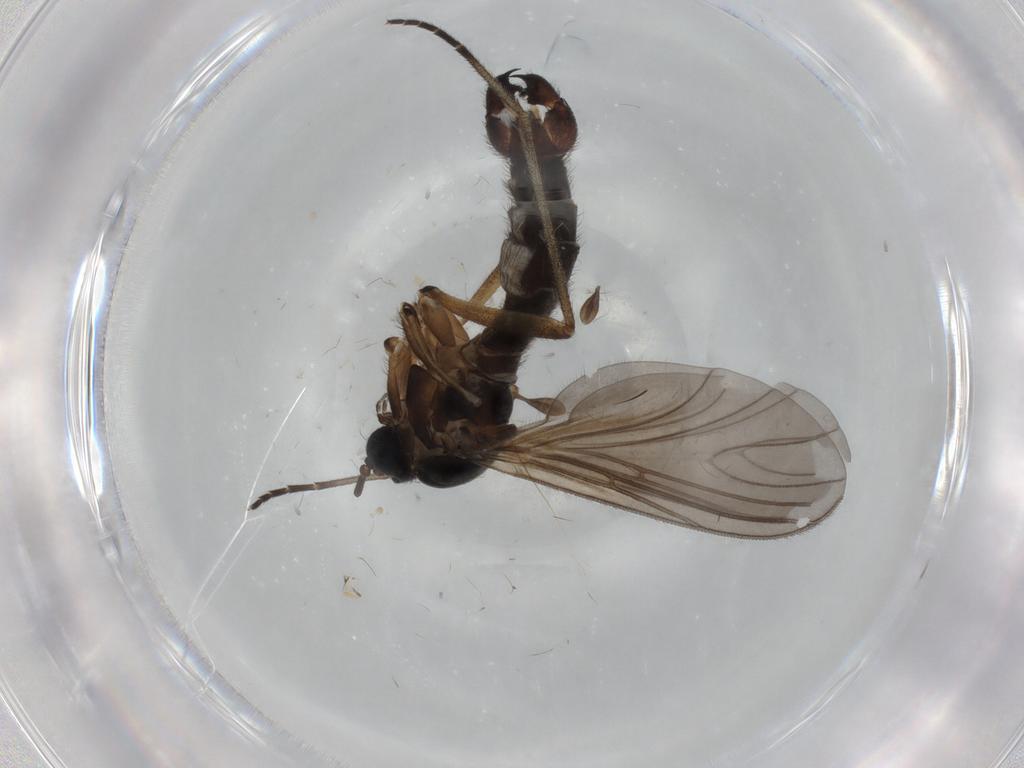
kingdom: Animalia
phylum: Arthropoda
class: Insecta
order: Diptera
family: Sciaridae
